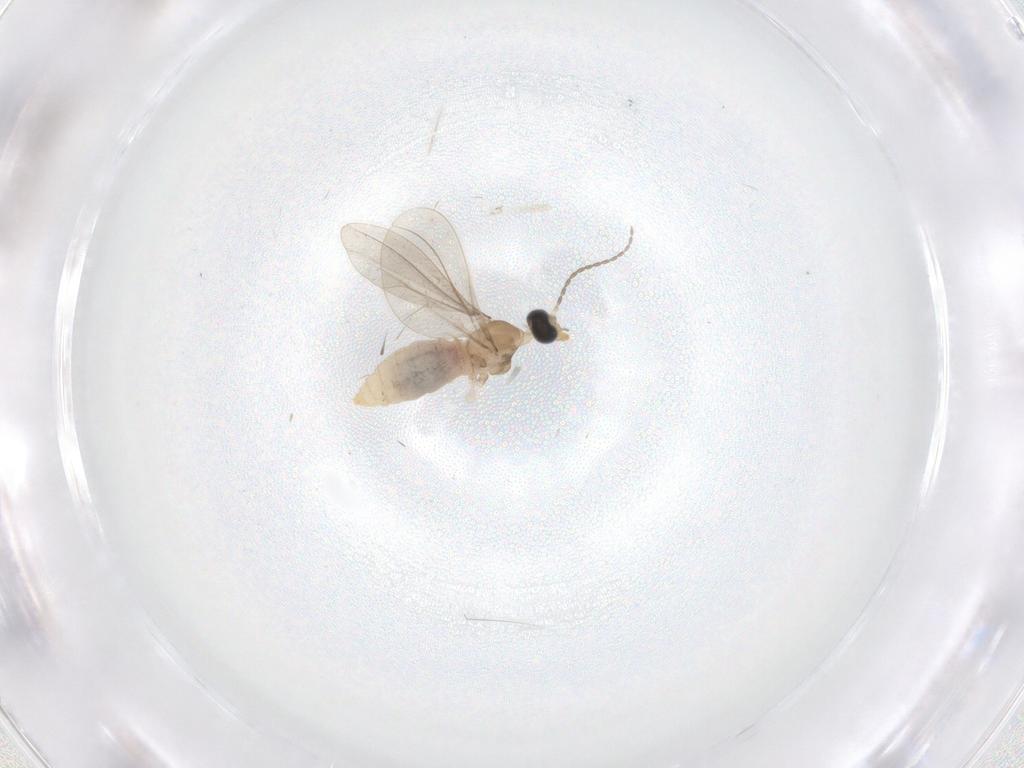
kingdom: Animalia
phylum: Arthropoda
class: Insecta
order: Diptera
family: Chironomidae
